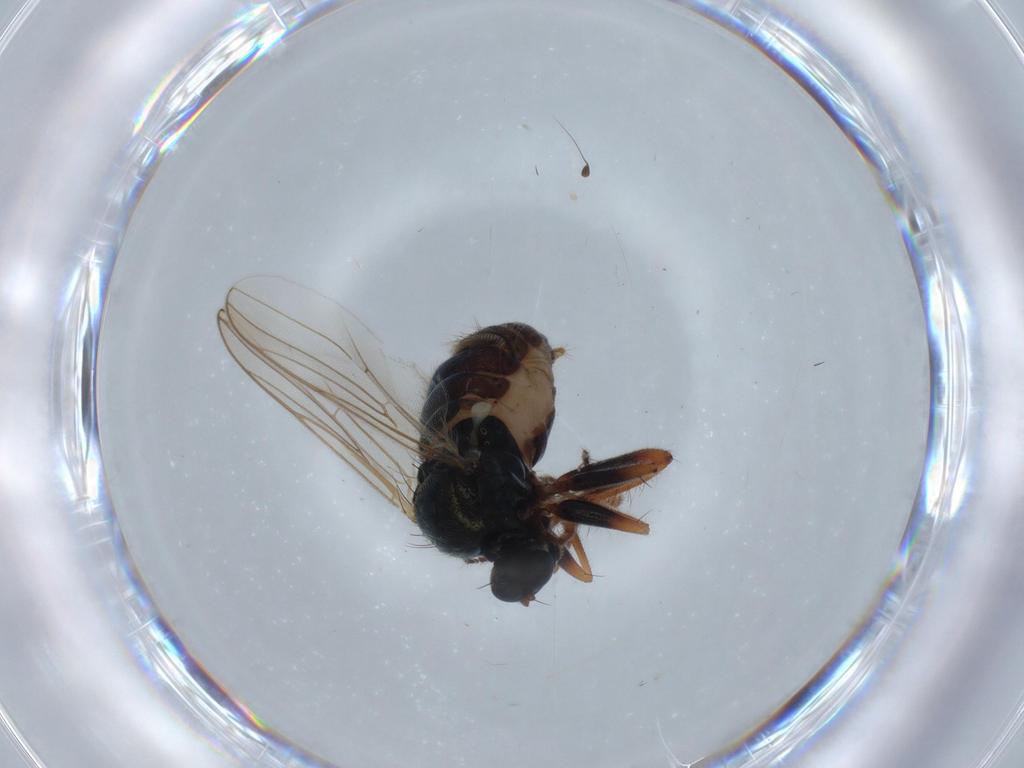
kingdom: Animalia
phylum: Arthropoda
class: Insecta
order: Diptera
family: Hybotidae
